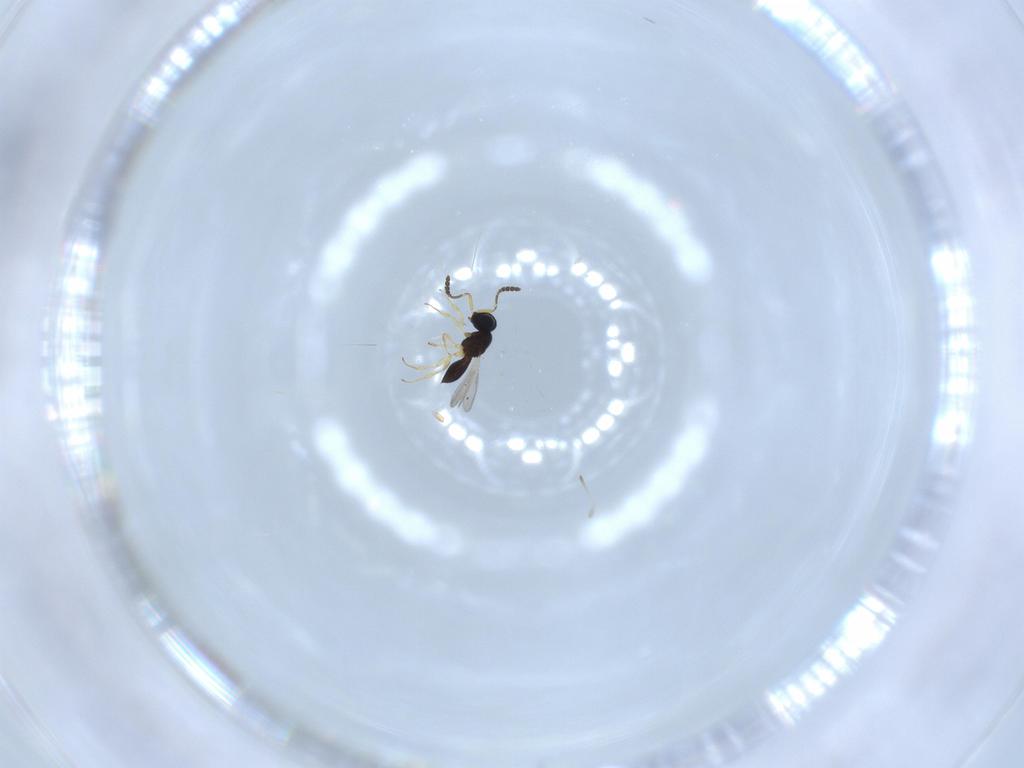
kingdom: Animalia
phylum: Arthropoda
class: Insecta
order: Hymenoptera
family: Scelionidae
